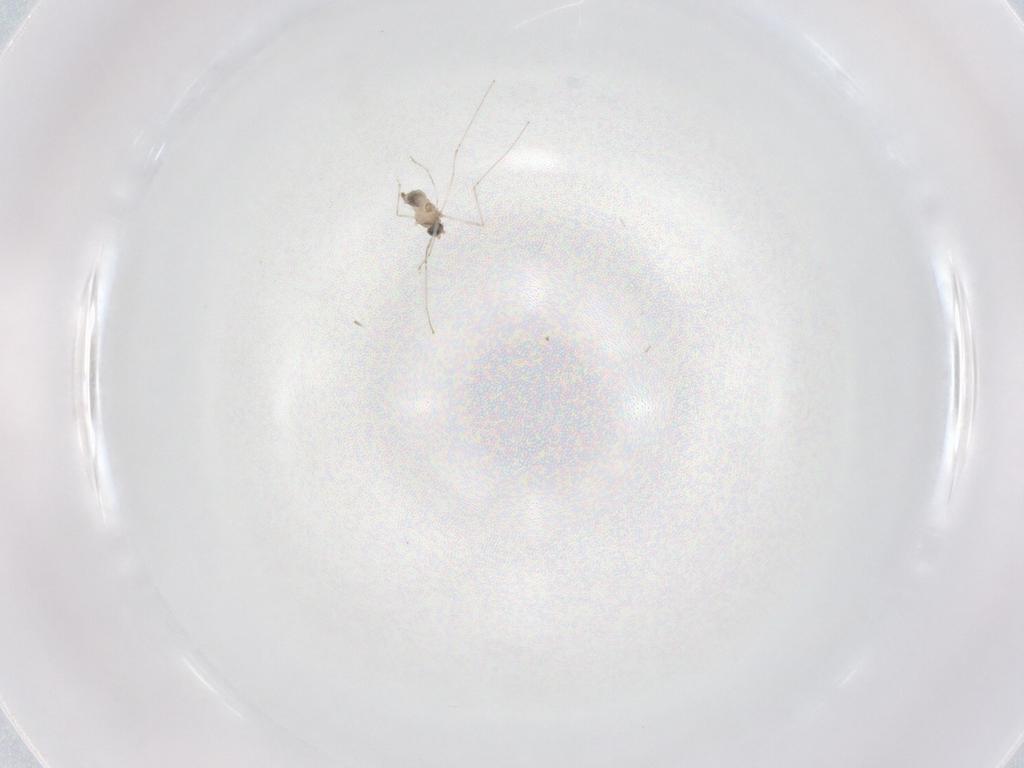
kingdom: Animalia
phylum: Arthropoda
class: Insecta
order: Diptera
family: Cecidomyiidae
